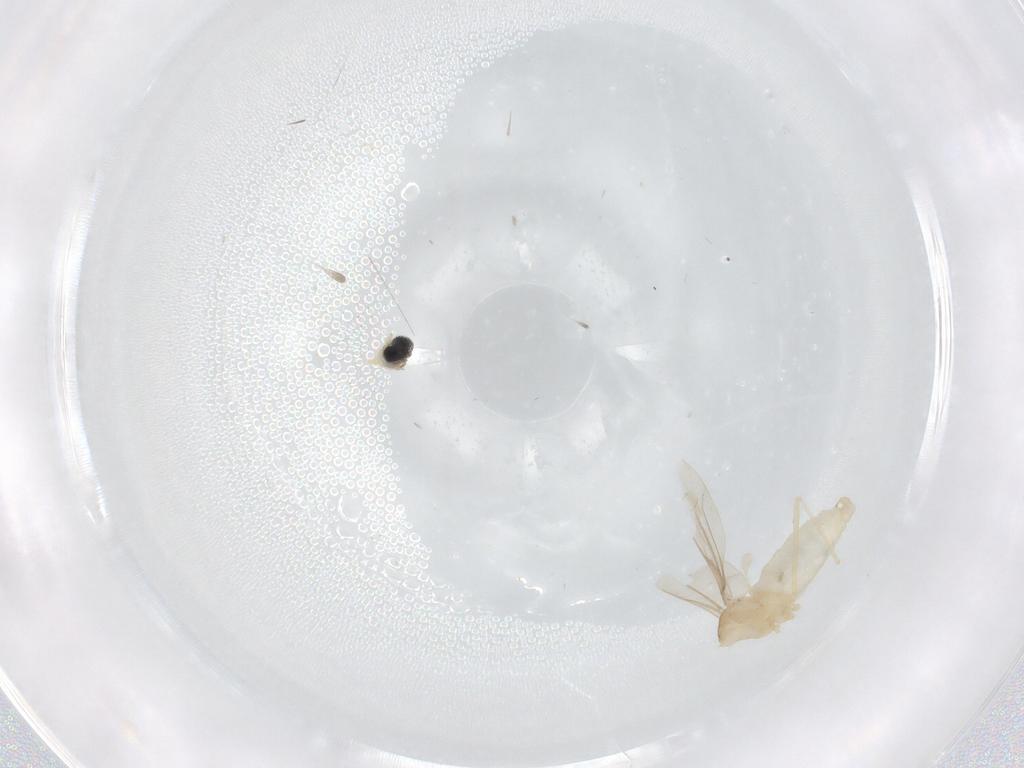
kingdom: Animalia
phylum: Arthropoda
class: Insecta
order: Diptera
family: Cecidomyiidae
